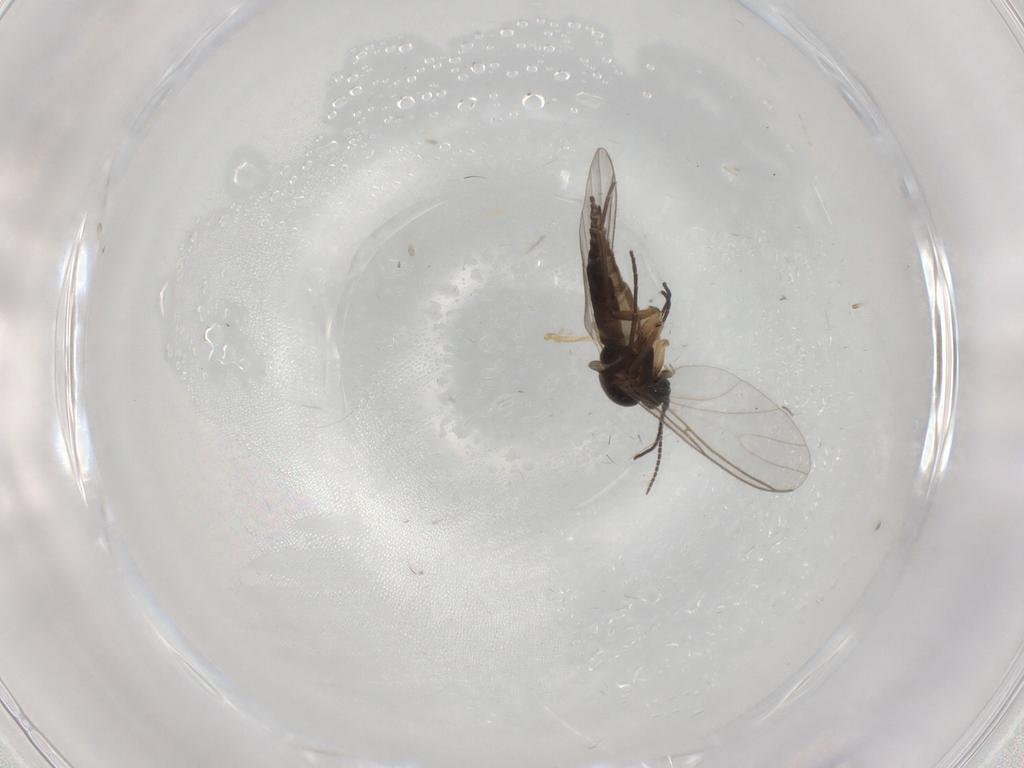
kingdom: Animalia
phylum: Arthropoda
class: Insecta
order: Diptera
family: Sciaridae
